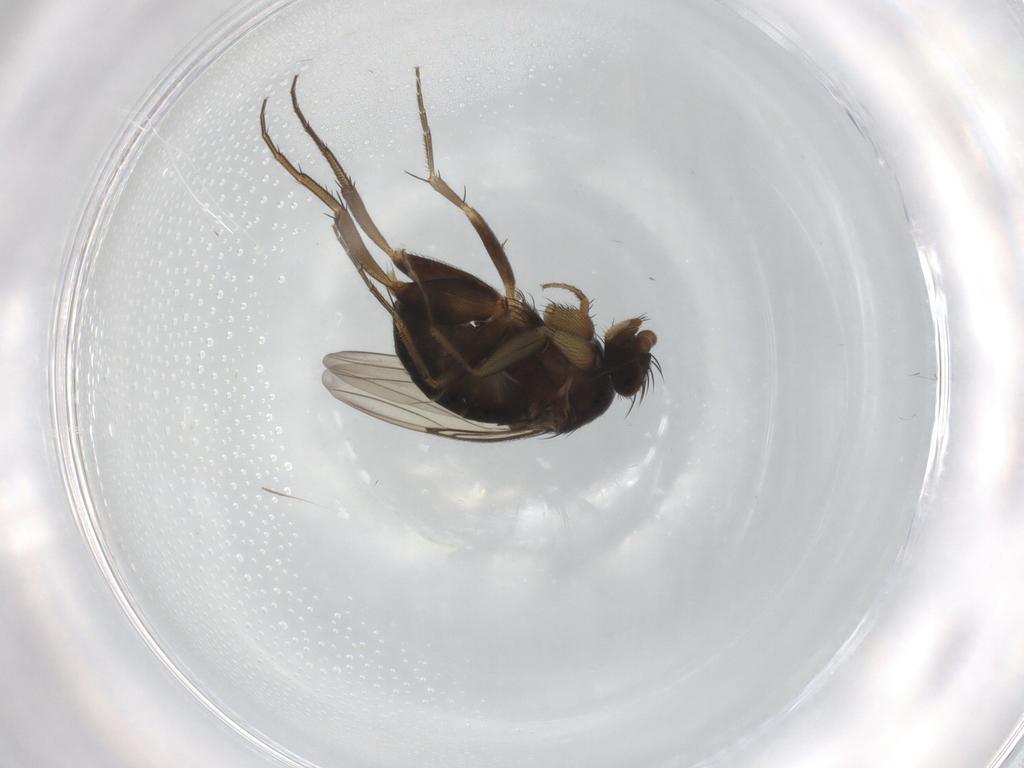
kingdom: Animalia
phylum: Arthropoda
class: Insecta
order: Diptera
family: Phoridae
